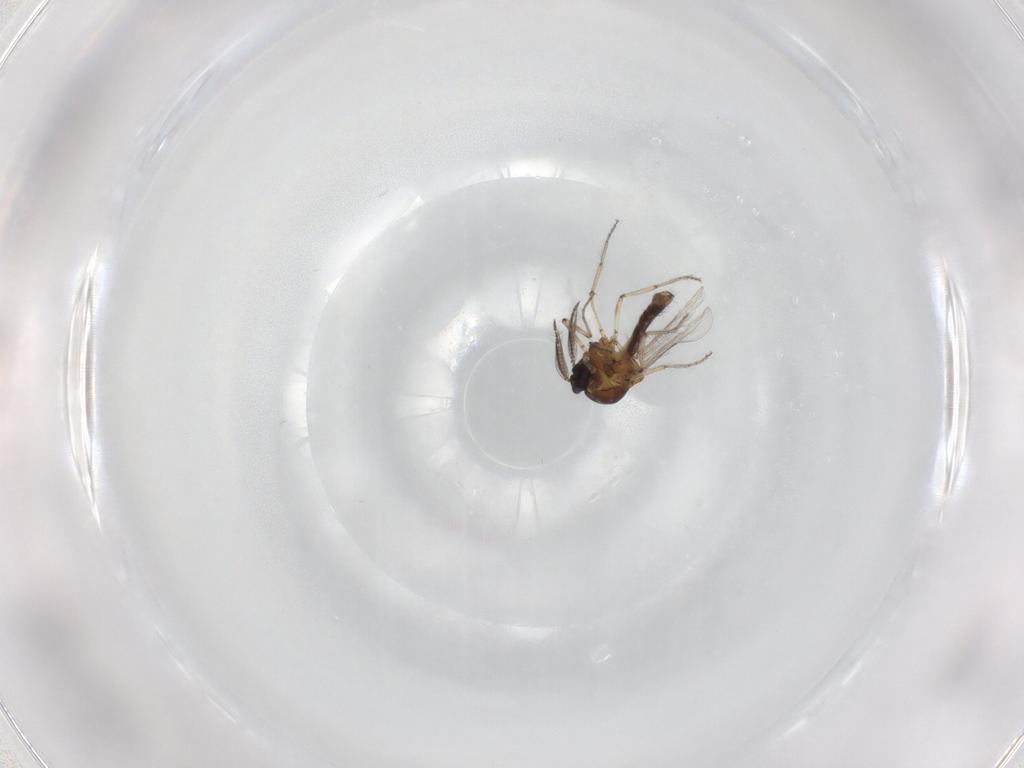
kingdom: Animalia
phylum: Arthropoda
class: Insecta
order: Diptera
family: Ceratopogonidae
